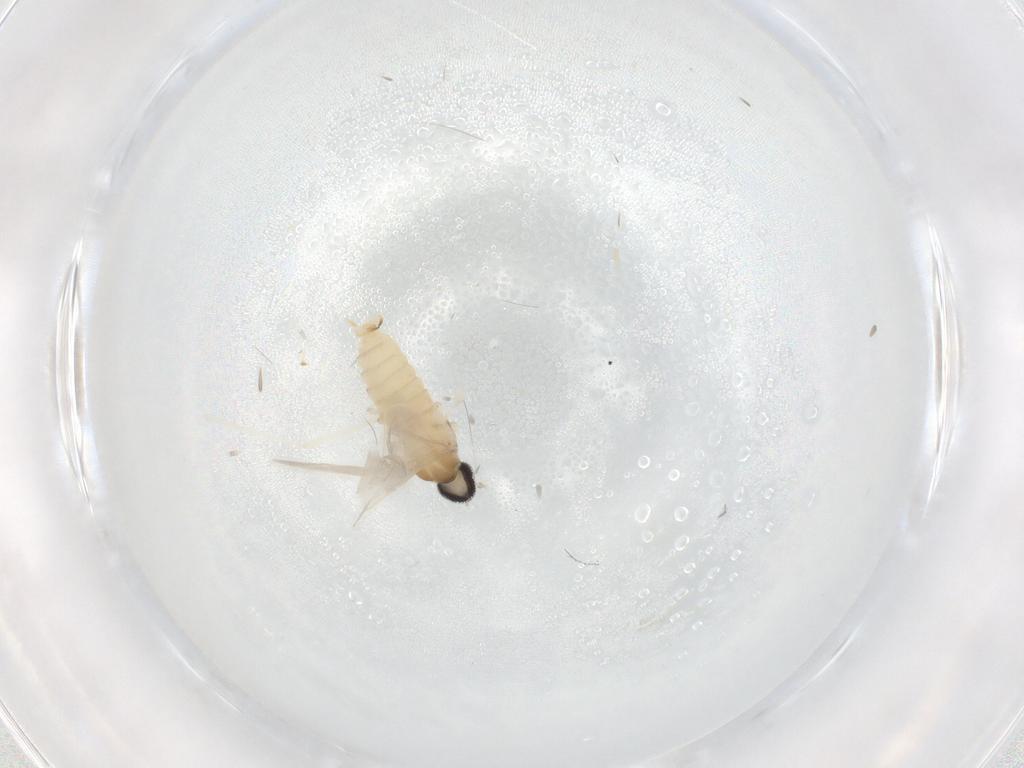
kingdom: Animalia
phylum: Arthropoda
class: Insecta
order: Diptera
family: Cecidomyiidae
